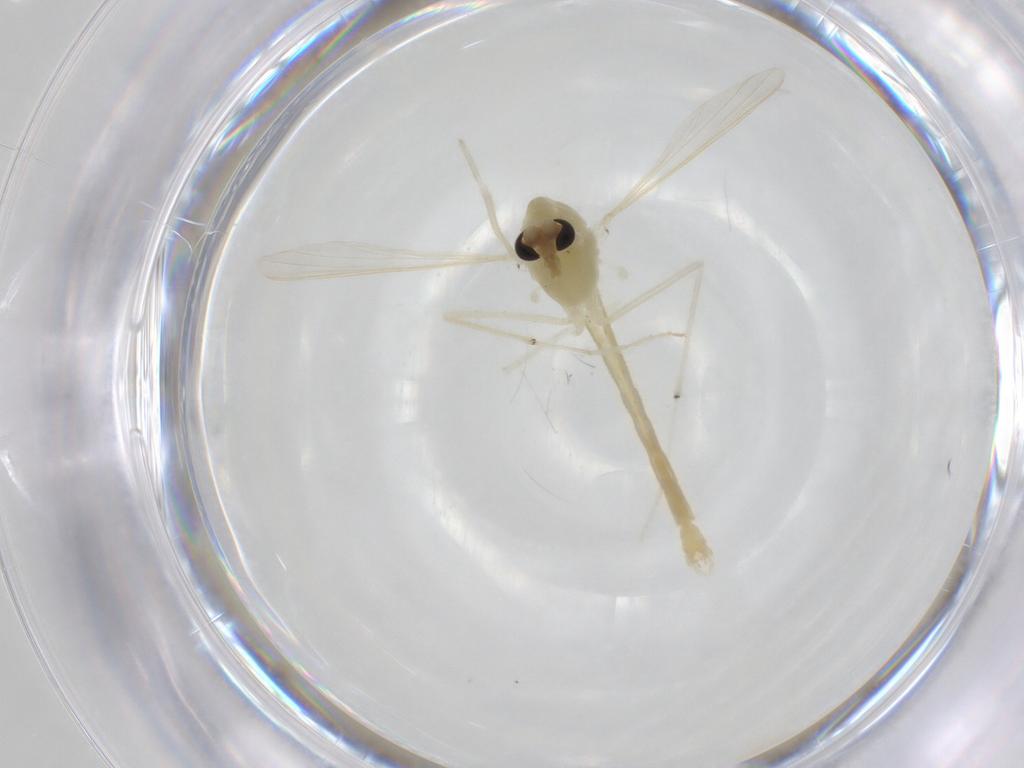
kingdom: Animalia
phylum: Arthropoda
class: Insecta
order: Diptera
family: Chironomidae
